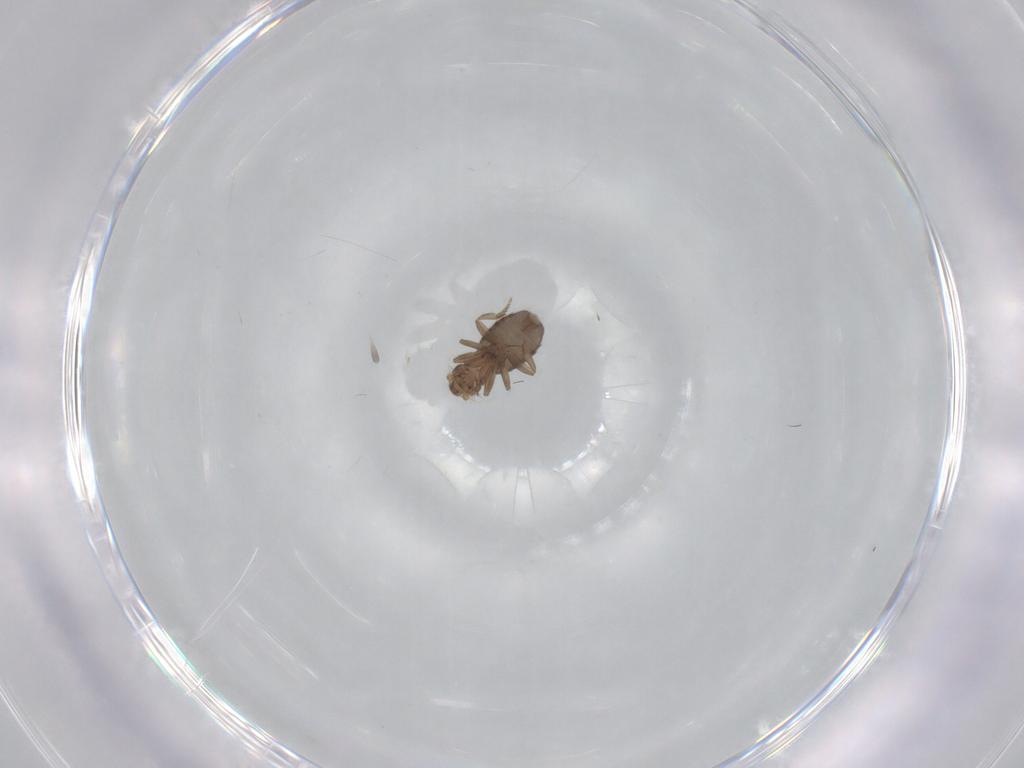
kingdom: Animalia
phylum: Arthropoda
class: Insecta
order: Diptera
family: Phoridae
